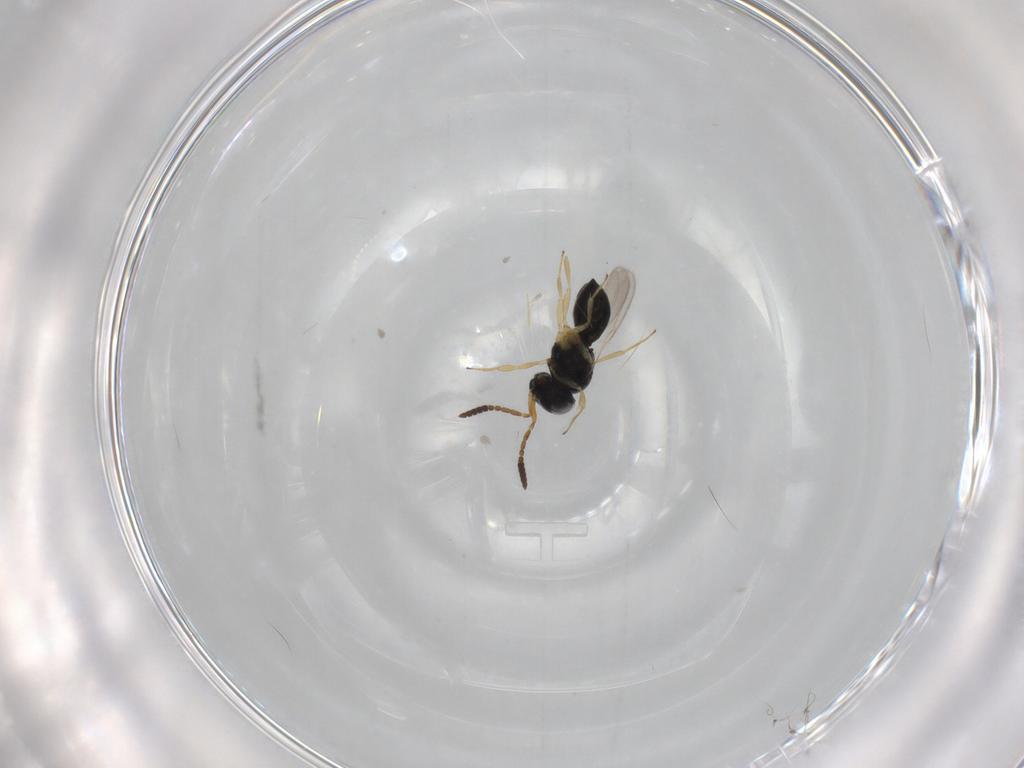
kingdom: Animalia
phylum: Arthropoda
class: Insecta
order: Hymenoptera
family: Scelionidae
